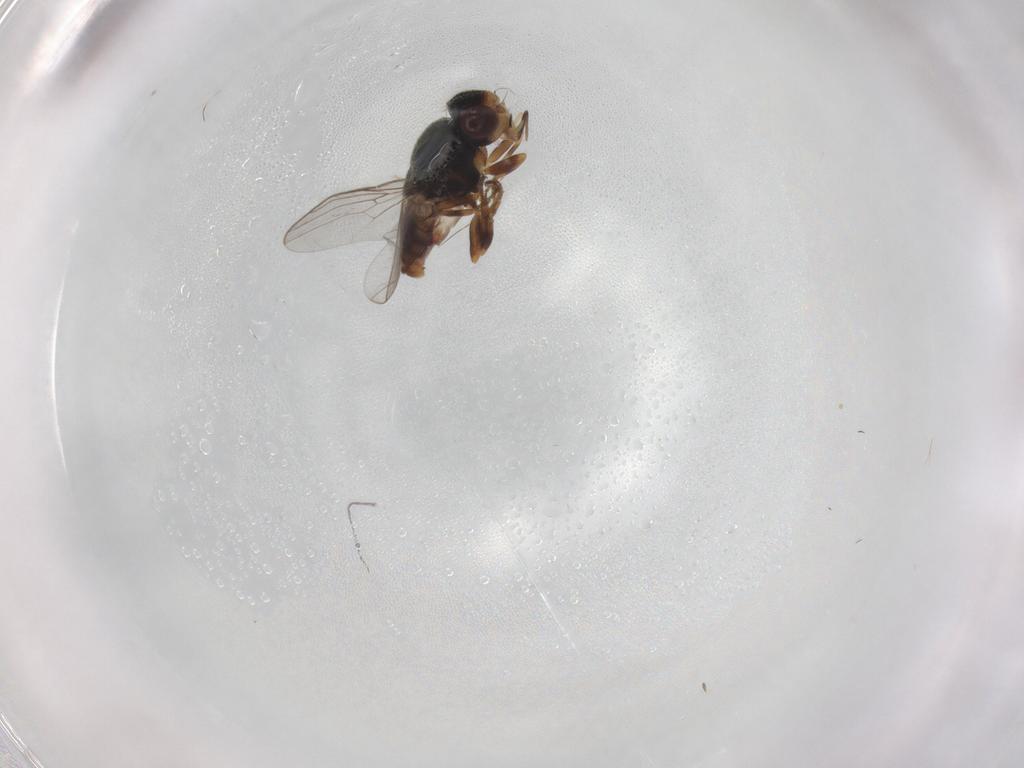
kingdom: Animalia
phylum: Arthropoda
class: Insecta
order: Diptera
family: Chloropidae
